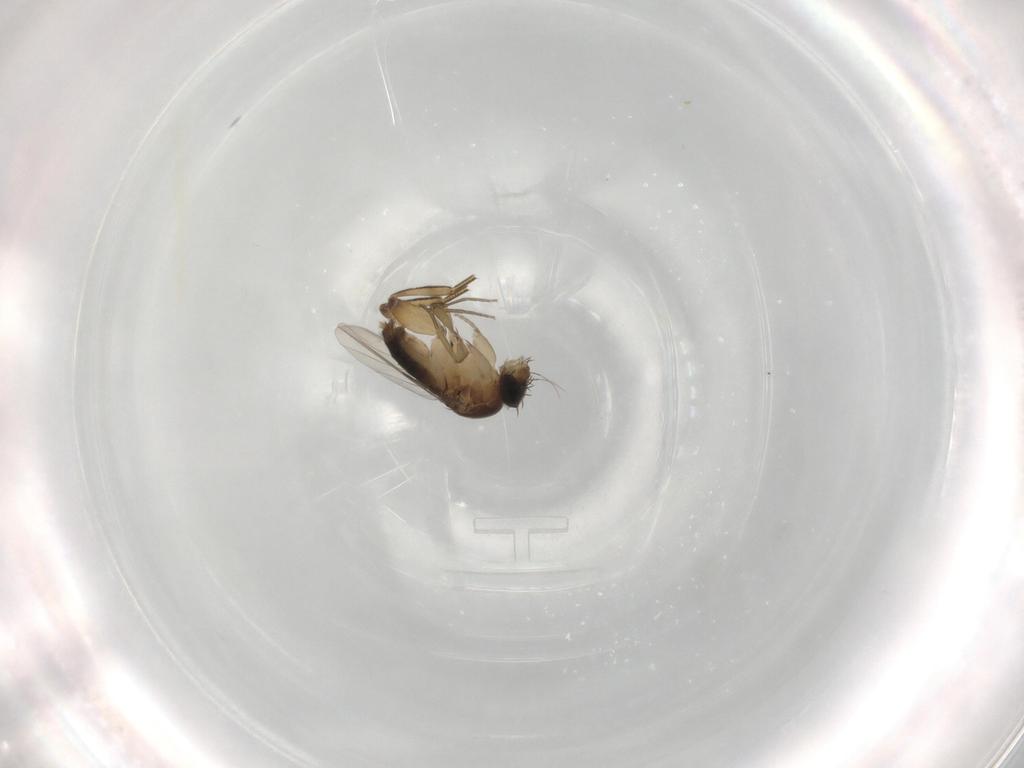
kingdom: Animalia
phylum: Arthropoda
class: Insecta
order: Diptera
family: Phoridae
